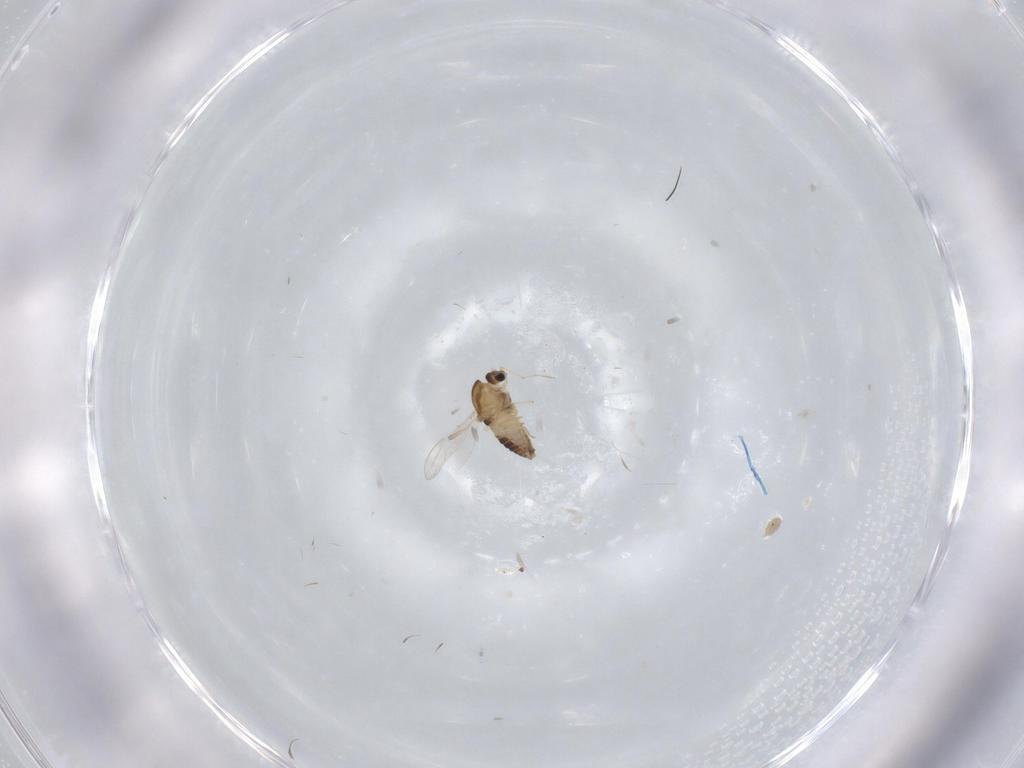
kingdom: Animalia
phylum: Arthropoda
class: Insecta
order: Diptera
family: Chironomidae
